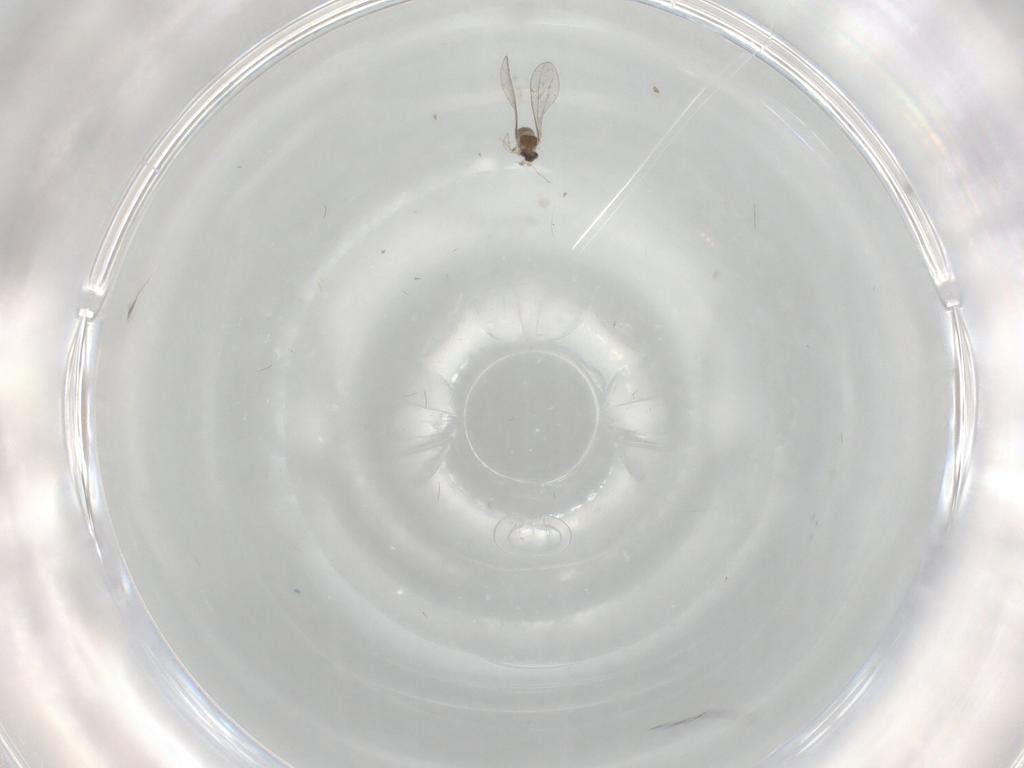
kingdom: Animalia
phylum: Arthropoda
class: Insecta
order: Diptera
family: Cecidomyiidae
